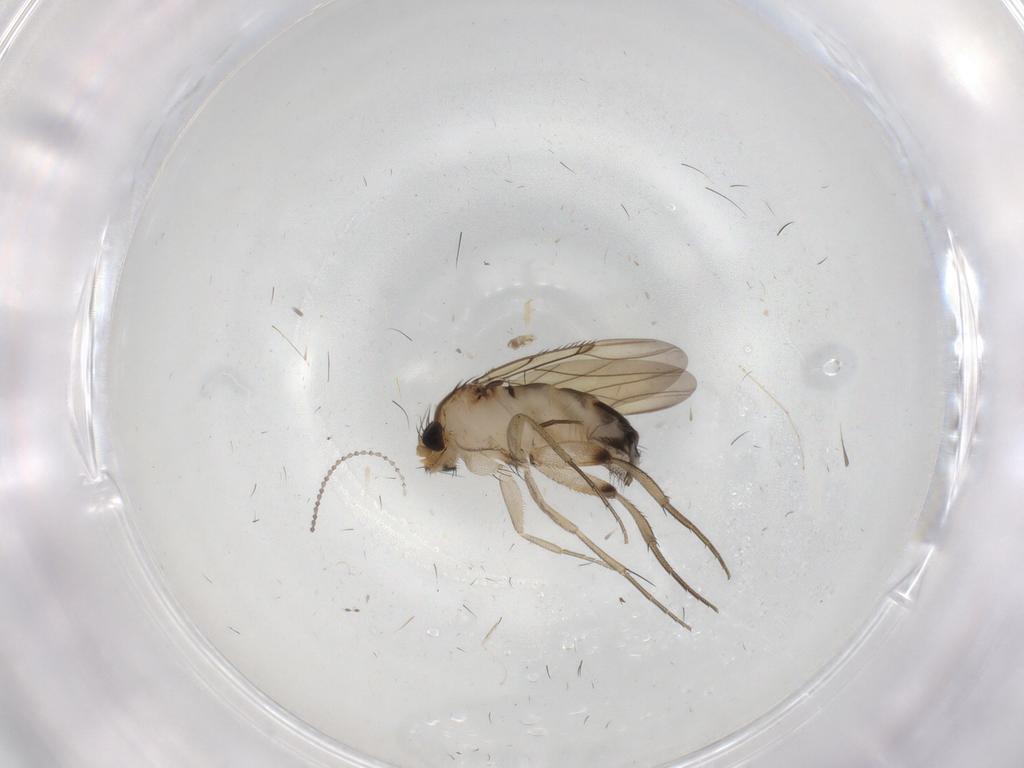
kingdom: Animalia
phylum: Arthropoda
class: Insecta
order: Diptera
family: Phoridae
